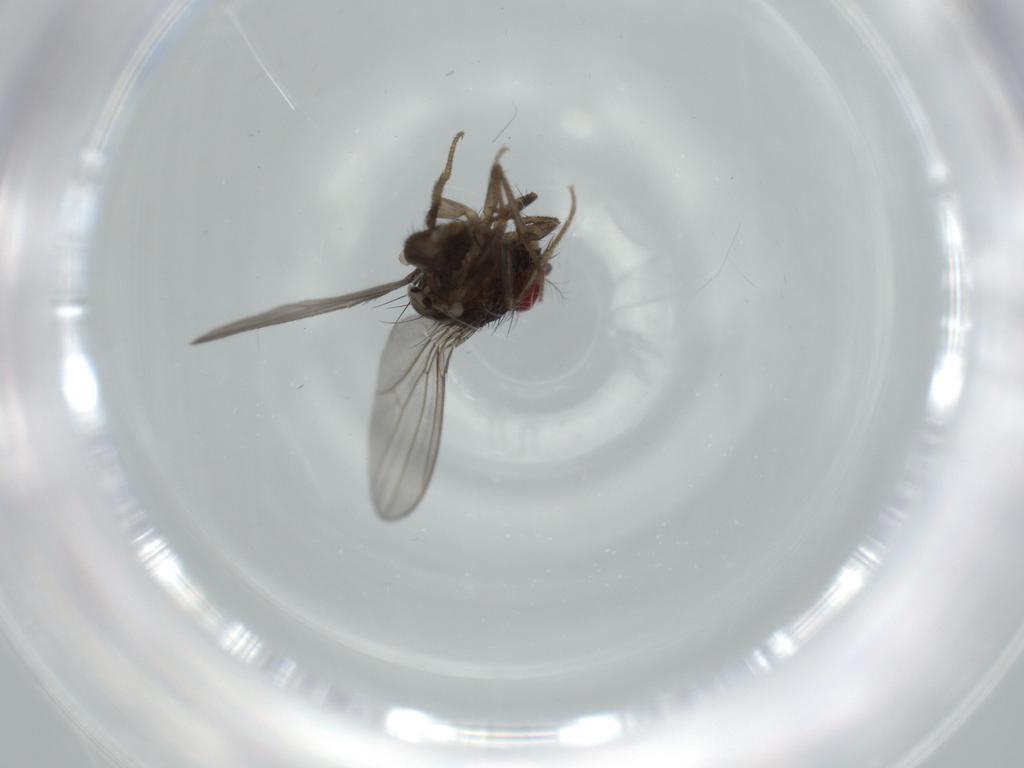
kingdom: Animalia
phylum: Arthropoda
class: Insecta
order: Diptera
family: Cecidomyiidae
